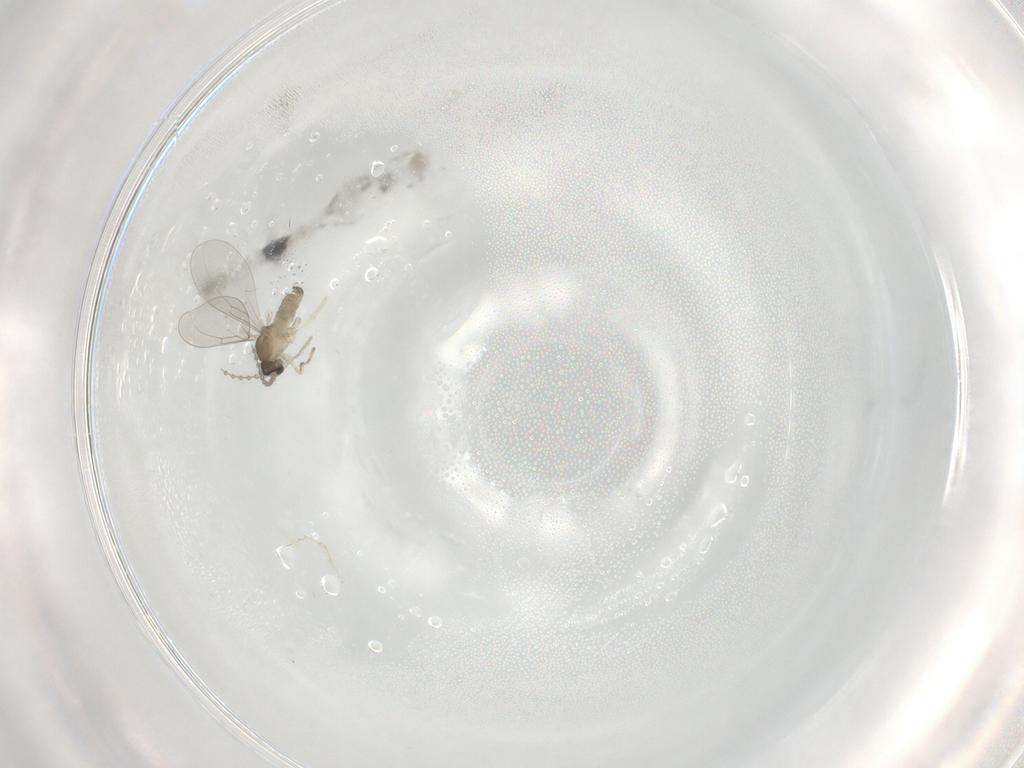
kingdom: Animalia
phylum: Arthropoda
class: Insecta
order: Diptera
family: Cecidomyiidae
